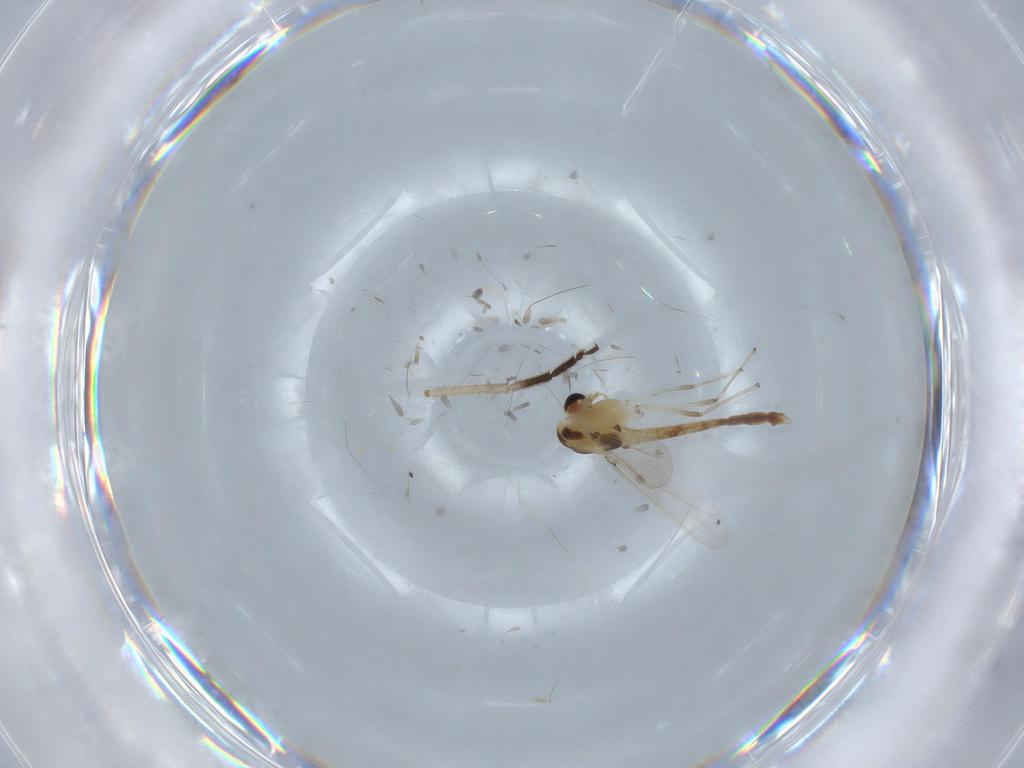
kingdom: Animalia
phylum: Arthropoda
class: Insecta
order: Diptera
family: Chironomidae
